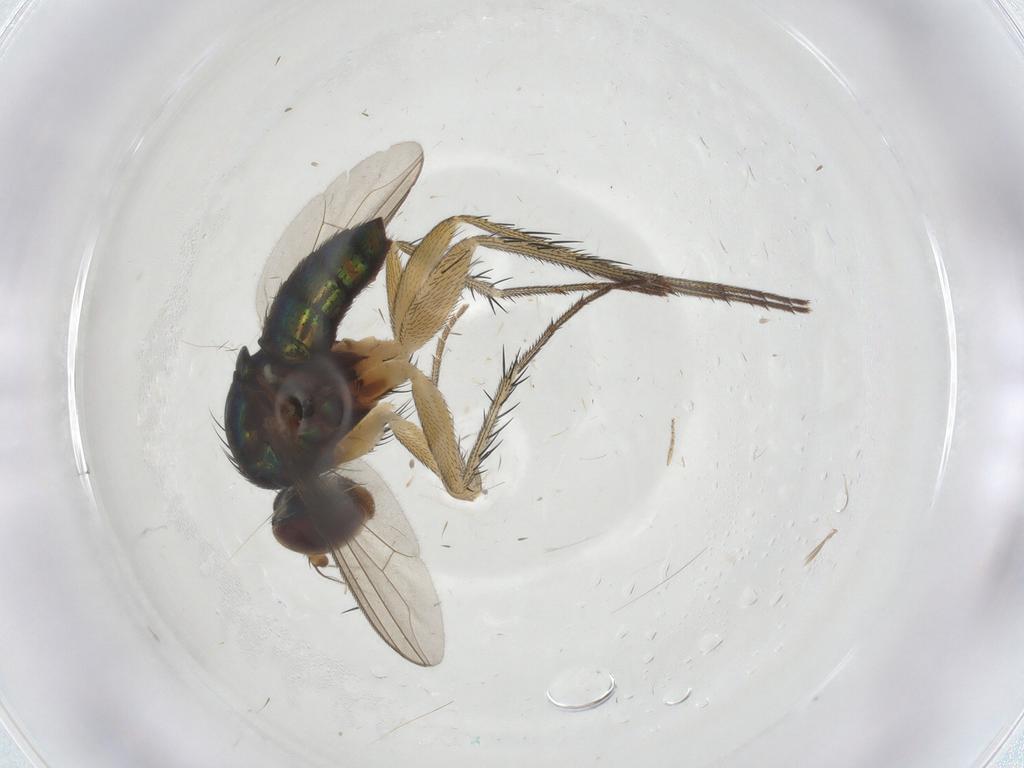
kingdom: Animalia
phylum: Arthropoda
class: Insecta
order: Diptera
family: Dolichopodidae
